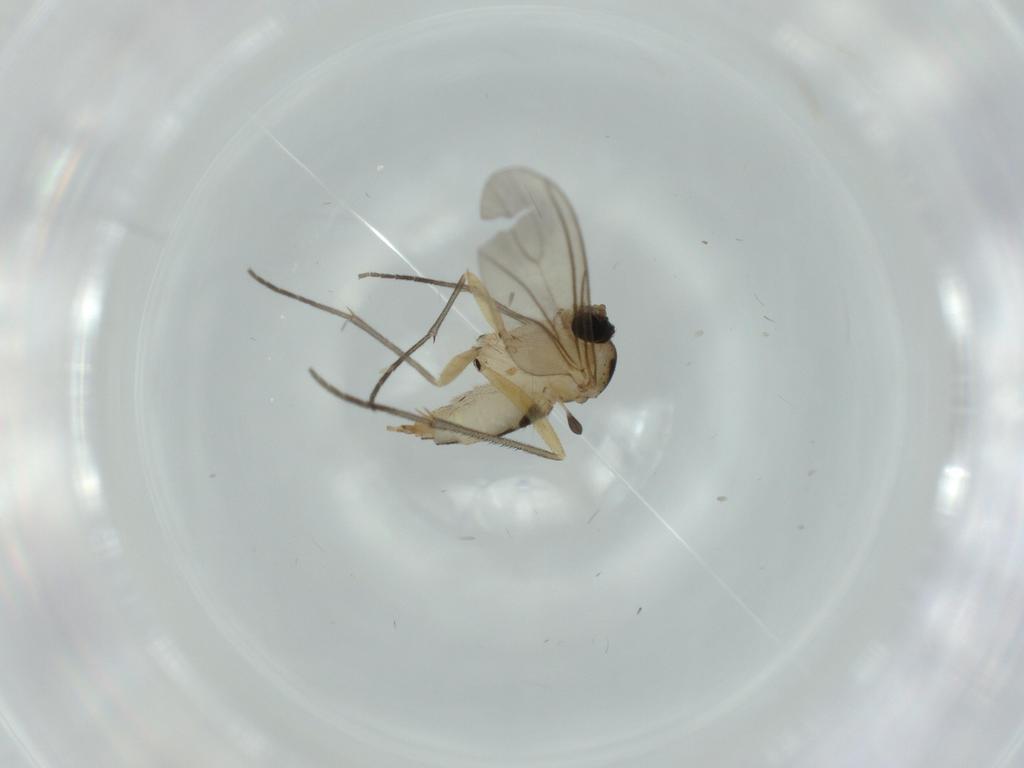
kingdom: Animalia
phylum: Arthropoda
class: Insecta
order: Diptera
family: Sciaridae
